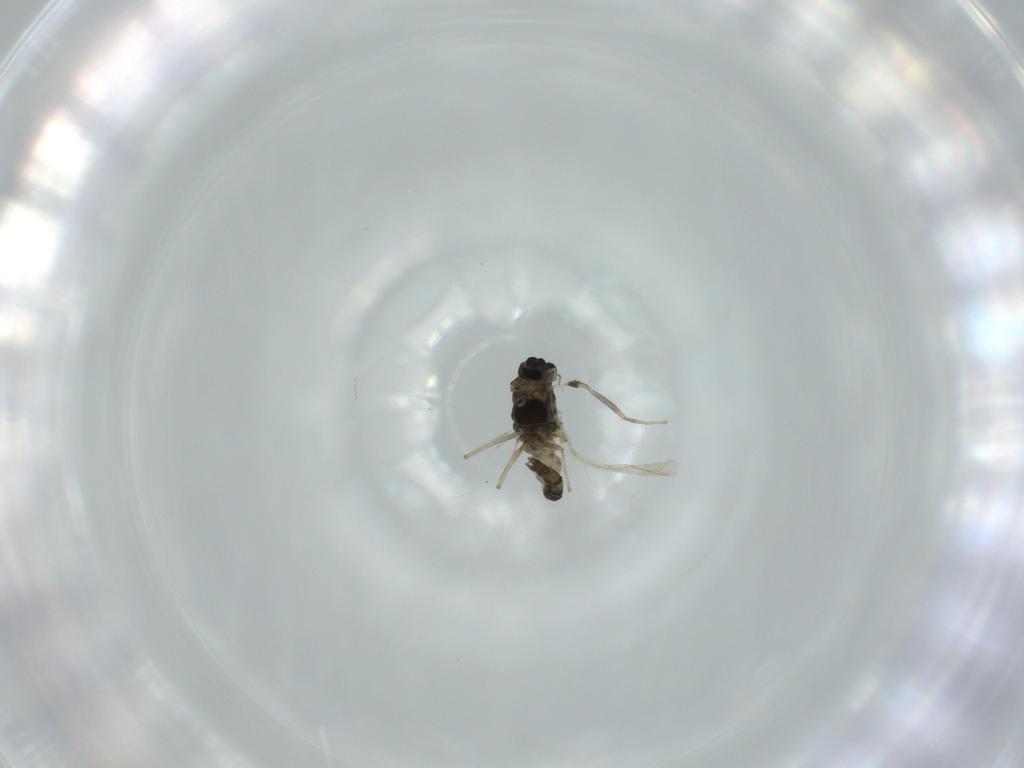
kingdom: Animalia
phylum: Arthropoda
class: Insecta
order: Diptera
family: Chironomidae
